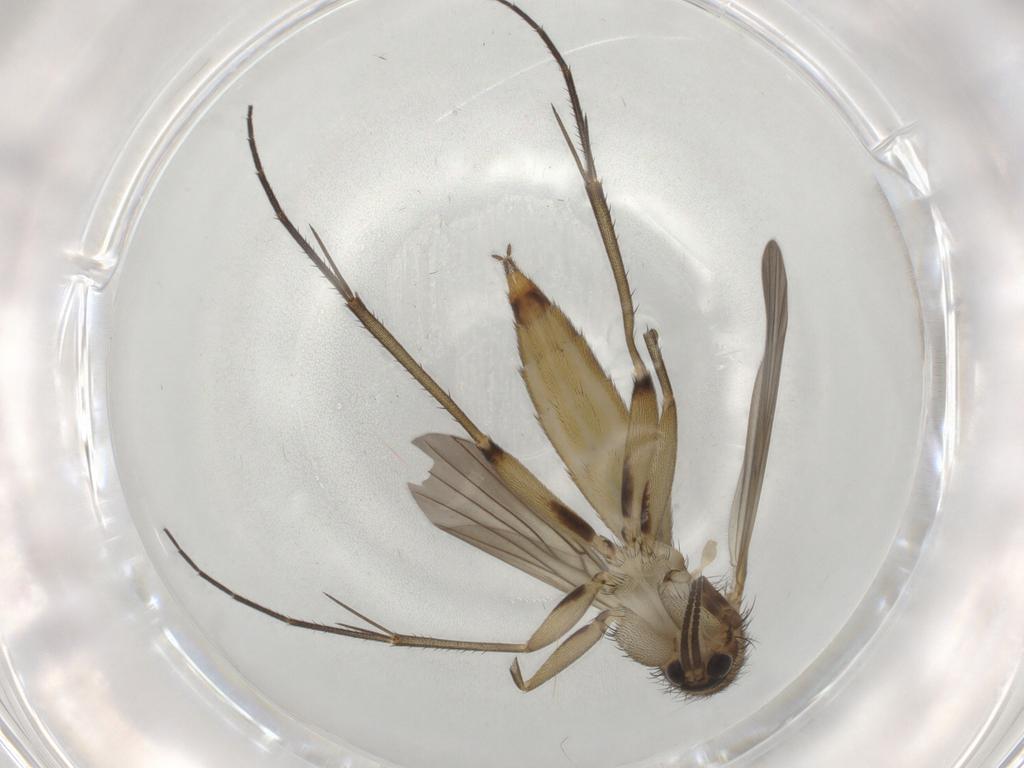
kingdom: Animalia
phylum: Arthropoda
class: Insecta
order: Diptera
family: Mycetophilidae
